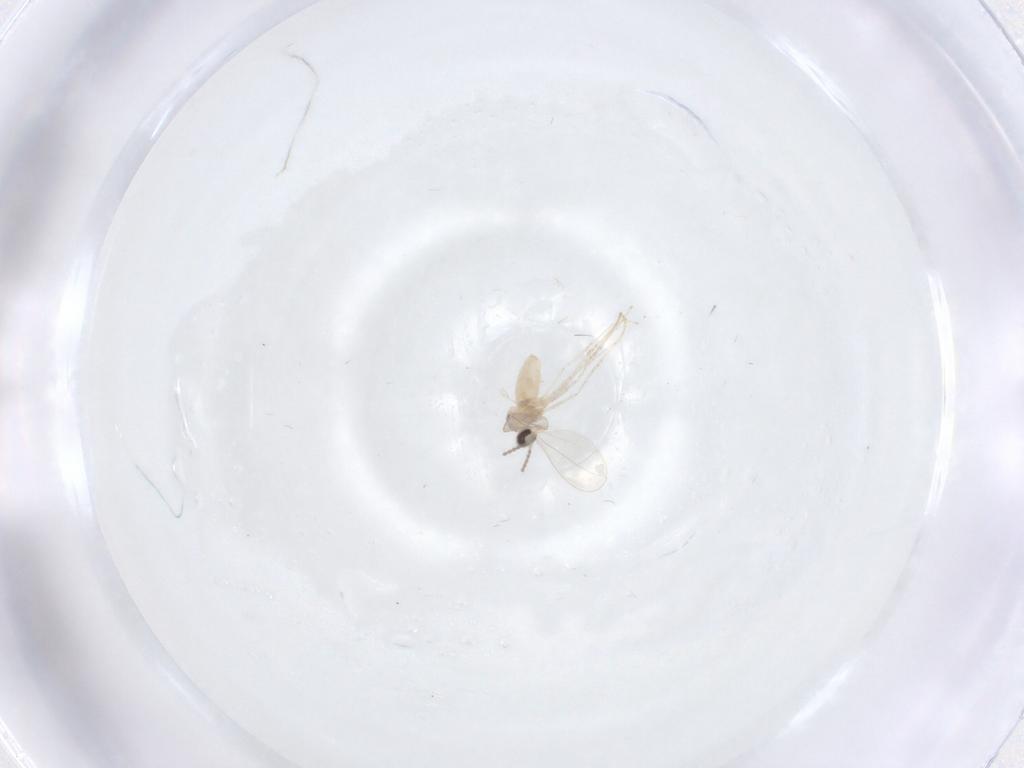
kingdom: Animalia
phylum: Arthropoda
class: Insecta
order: Diptera
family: Cecidomyiidae
